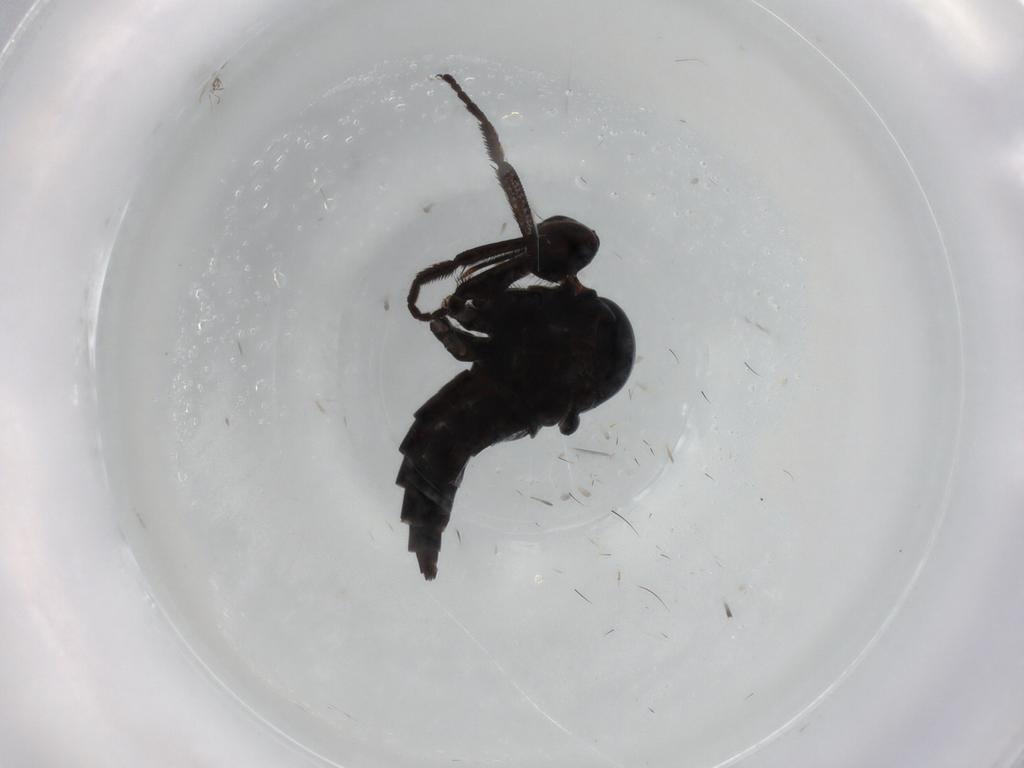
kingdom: Animalia
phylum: Arthropoda
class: Insecta
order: Diptera
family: Empididae
